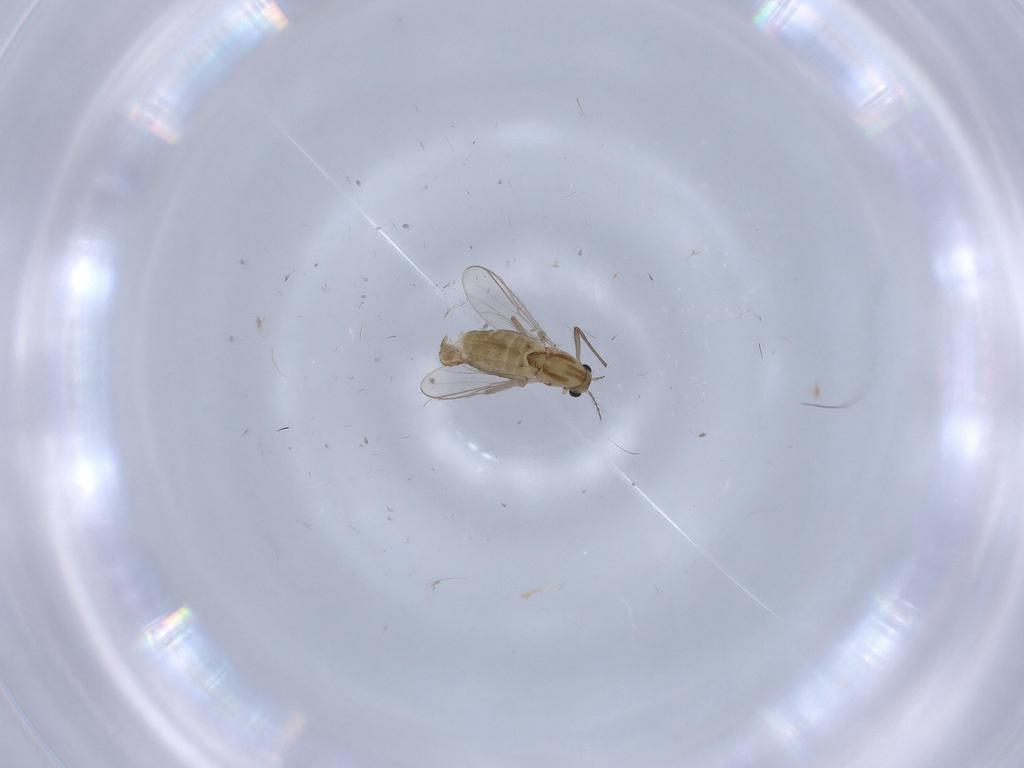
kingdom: Animalia
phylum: Arthropoda
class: Insecta
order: Diptera
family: Chironomidae
